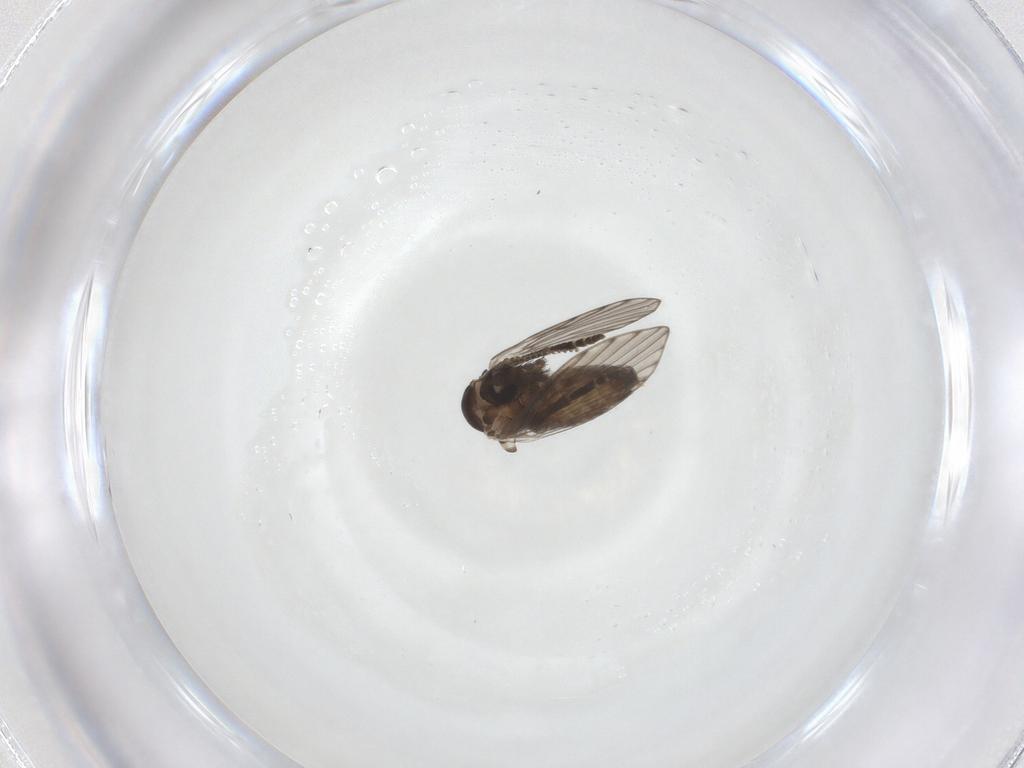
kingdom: Animalia
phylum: Arthropoda
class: Insecta
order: Diptera
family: Psychodidae
